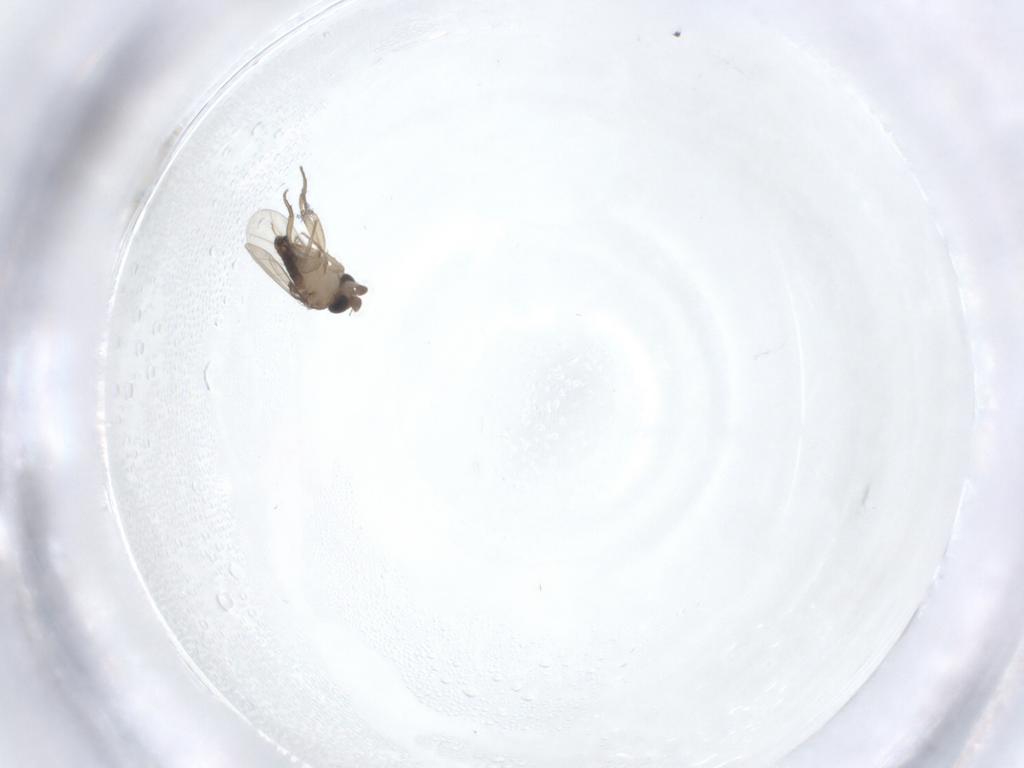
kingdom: Animalia
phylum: Arthropoda
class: Insecta
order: Diptera
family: Phoridae
